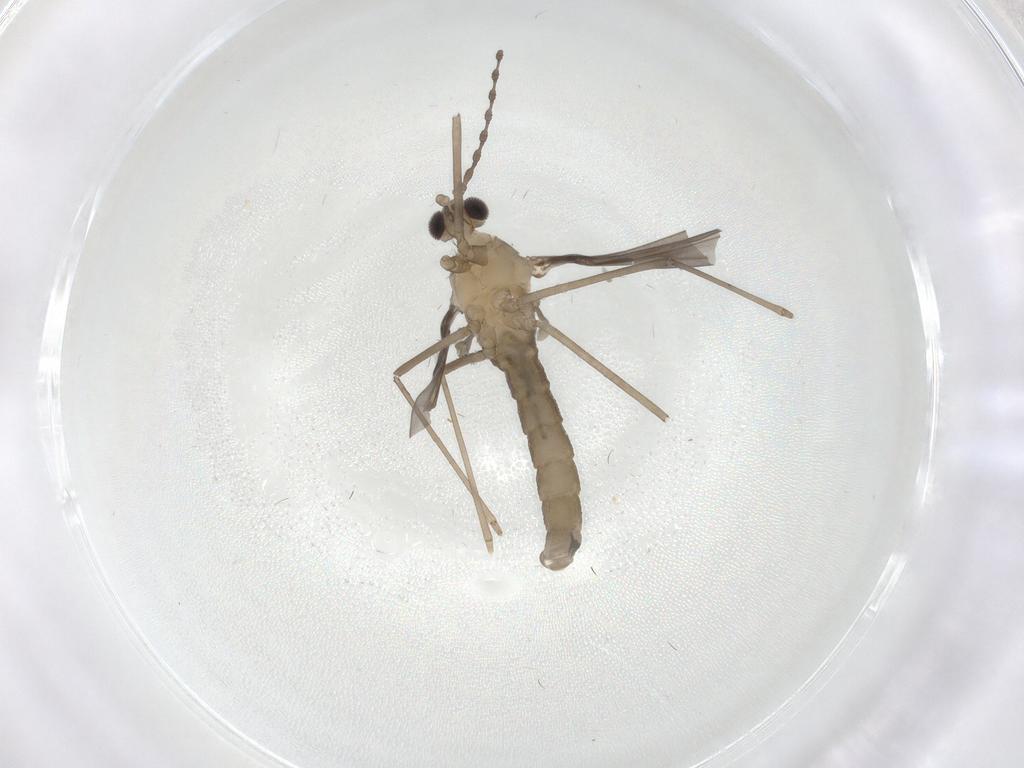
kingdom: Animalia
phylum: Arthropoda
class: Insecta
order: Diptera
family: Cecidomyiidae
